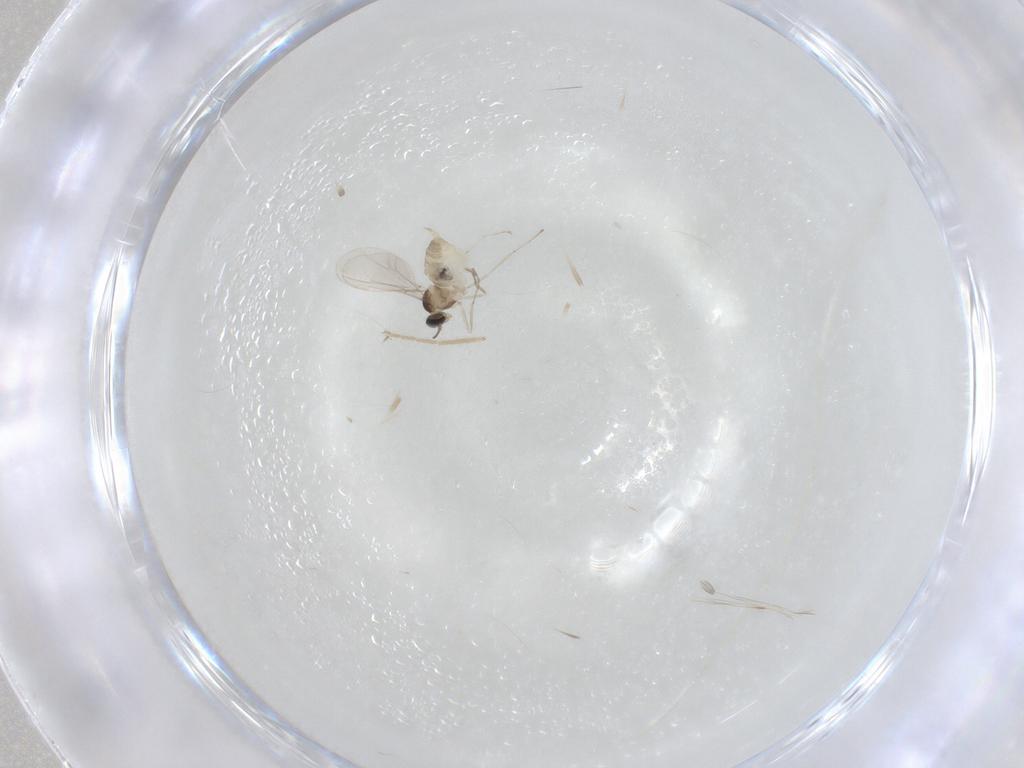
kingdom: Animalia
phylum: Arthropoda
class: Insecta
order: Diptera
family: Cecidomyiidae
